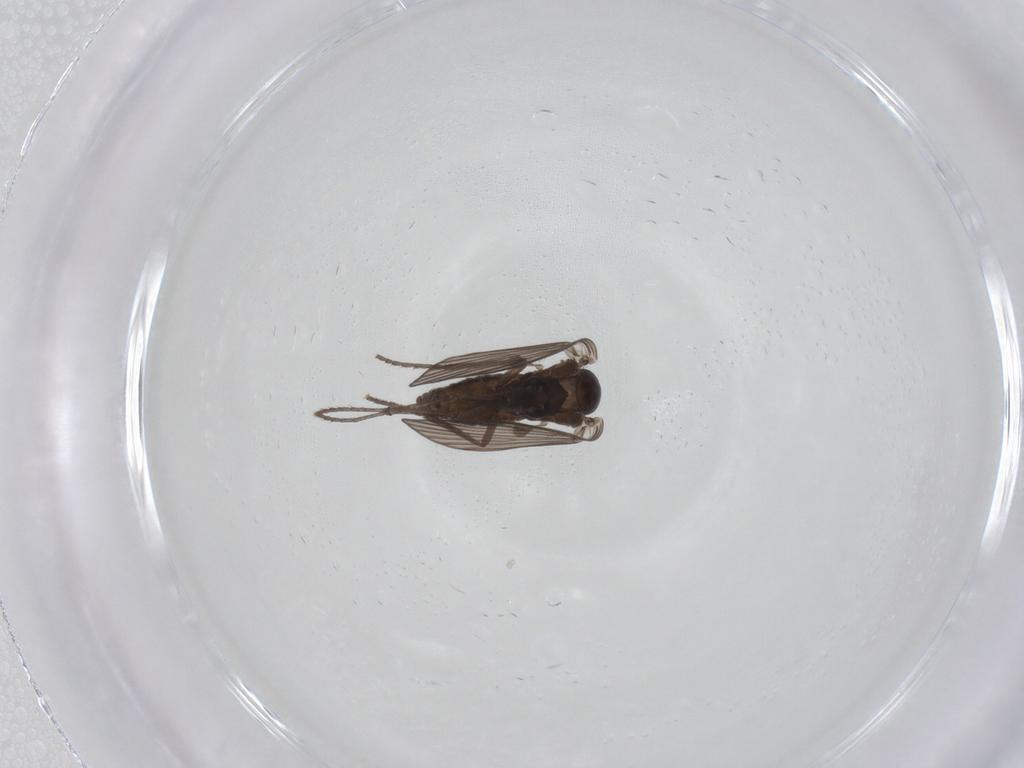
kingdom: Animalia
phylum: Arthropoda
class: Insecta
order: Diptera
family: Psychodidae
